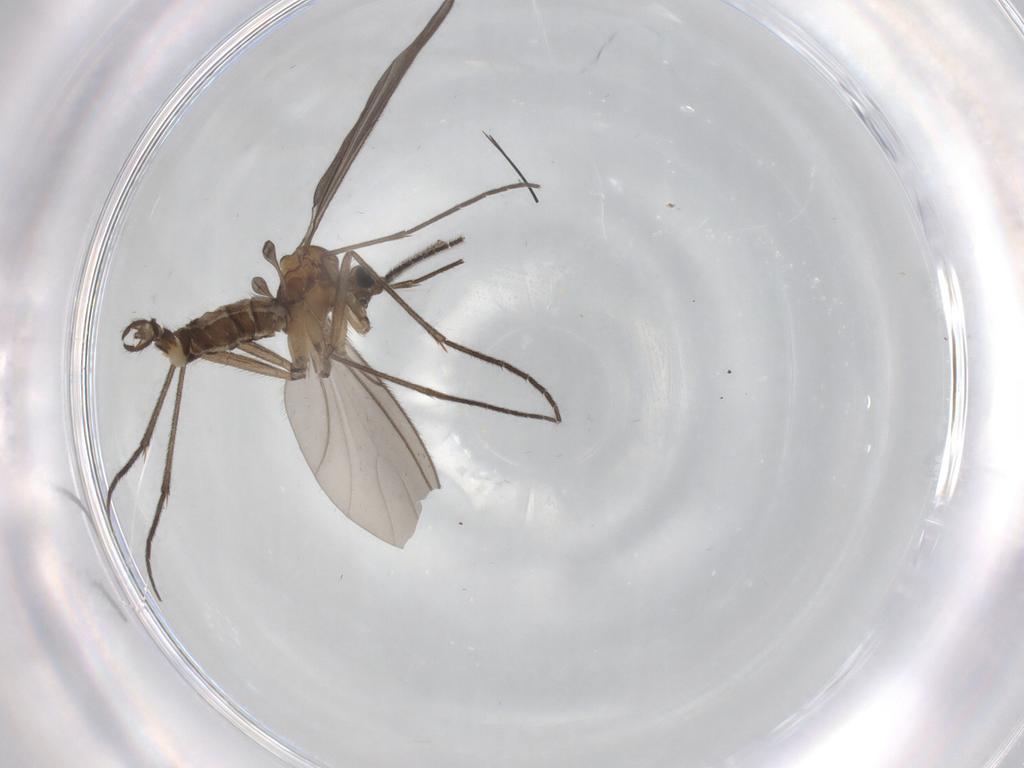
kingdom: Animalia
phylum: Arthropoda
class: Insecta
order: Diptera
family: Sciaridae
